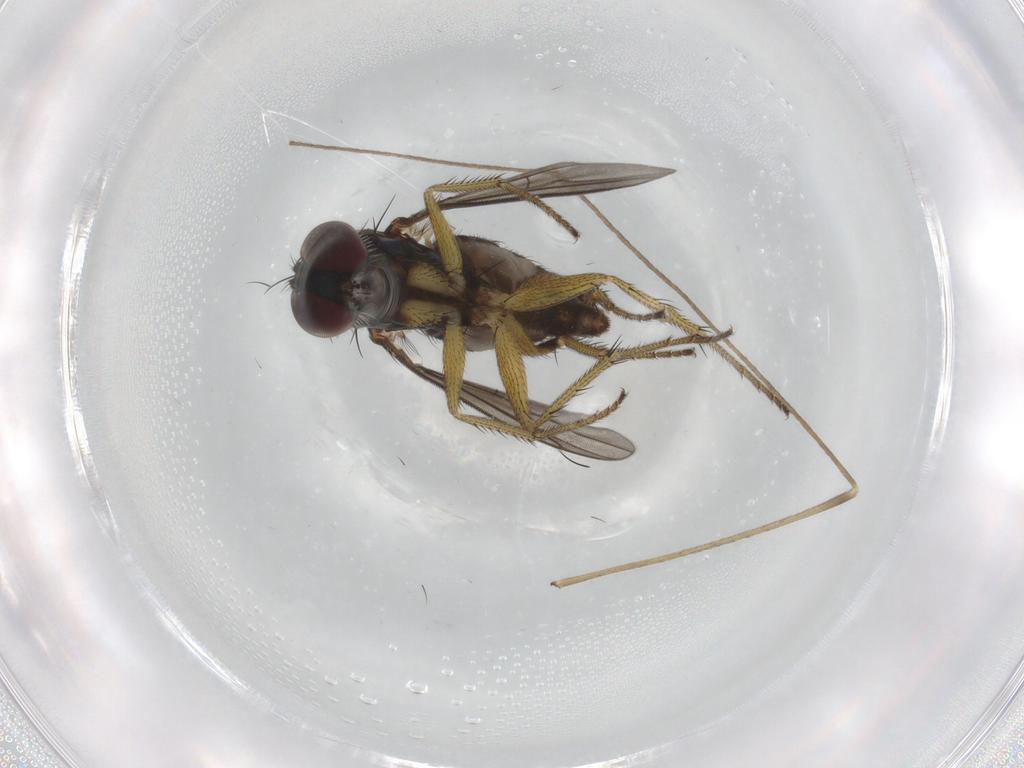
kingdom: Animalia
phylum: Arthropoda
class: Insecta
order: Diptera
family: Dolichopodidae
